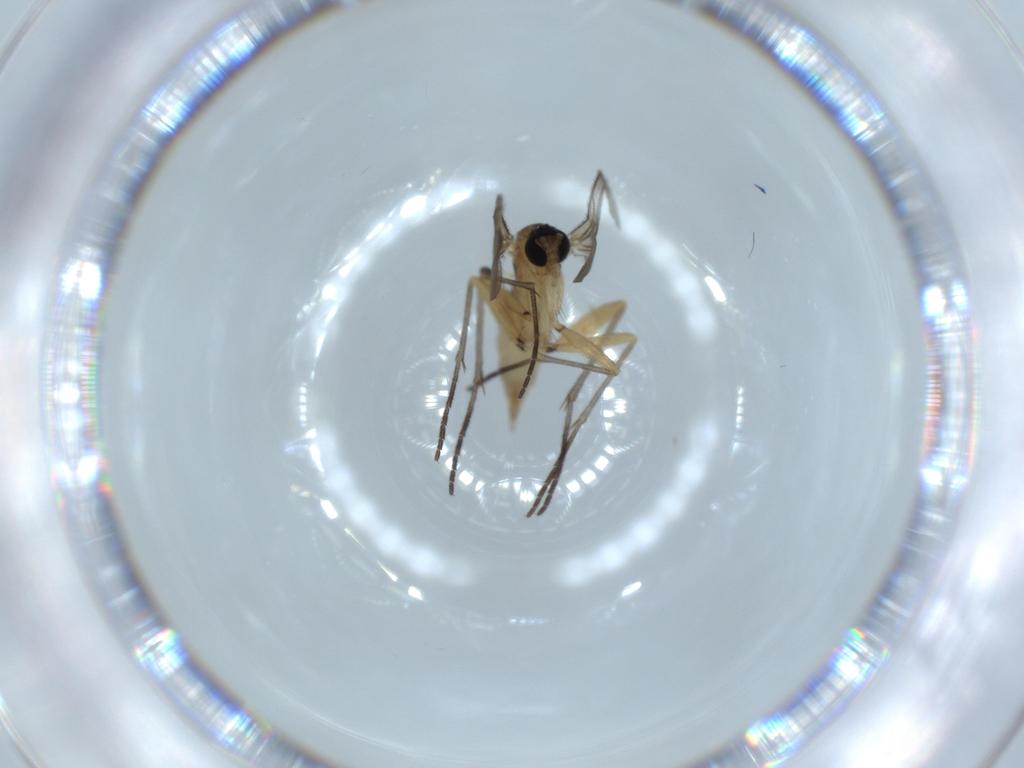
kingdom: Animalia
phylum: Arthropoda
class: Insecta
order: Diptera
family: Sciaridae
